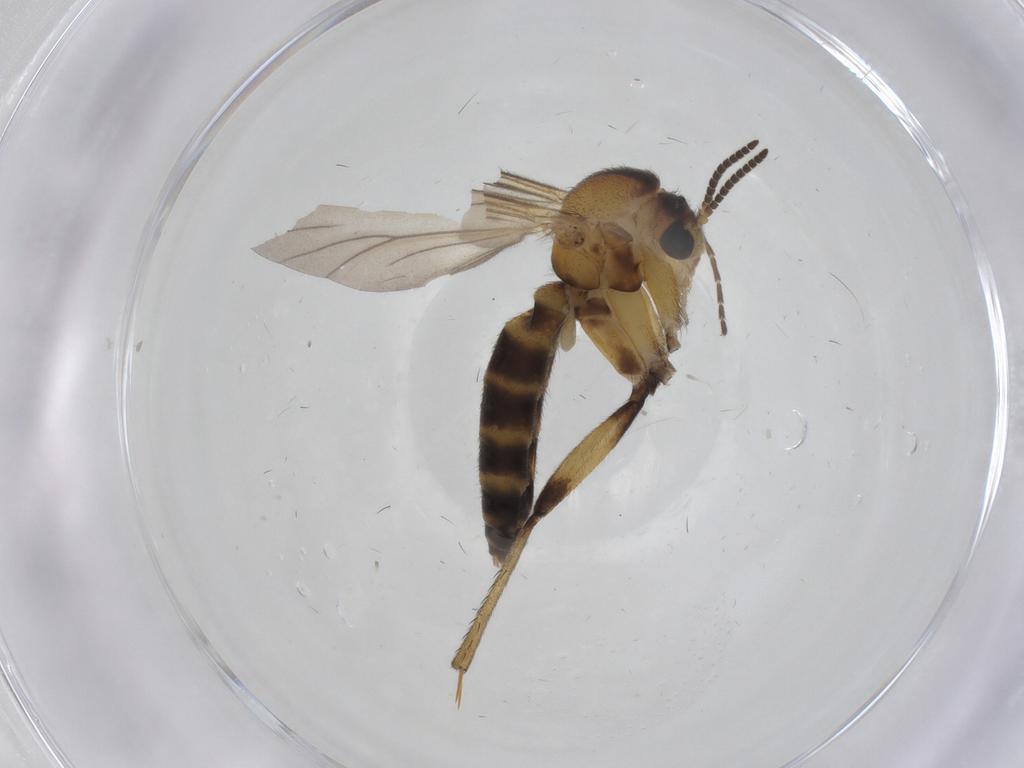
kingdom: Animalia
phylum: Arthropoda
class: Insecta
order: Diptera
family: Mycetophilidae
